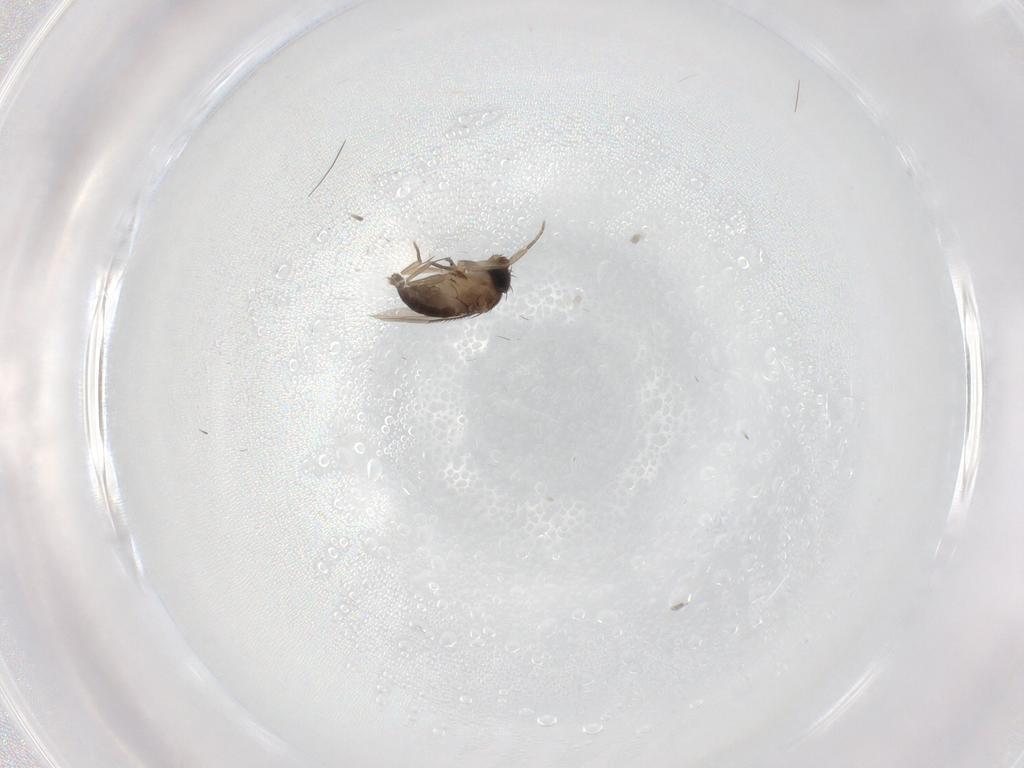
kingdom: Animalia
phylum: Arthropoda
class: Insecta
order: Diptera
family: Phoridae
